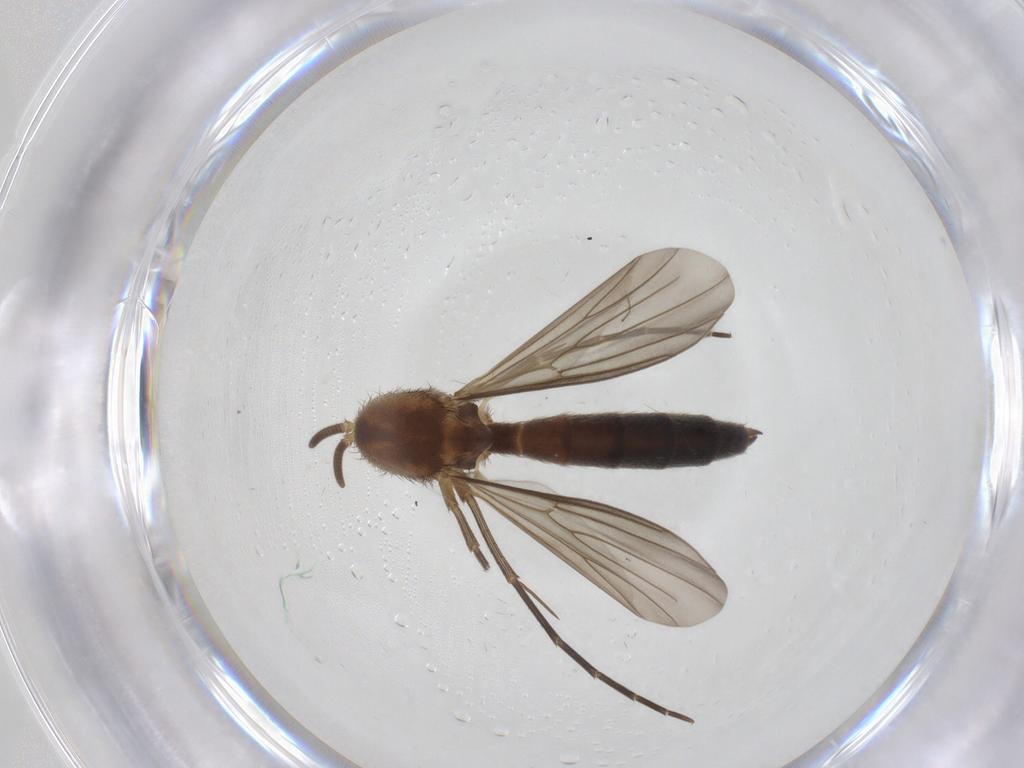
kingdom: Animalia
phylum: Arthropoda
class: Insecta
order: Diptera
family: Mycetophilidae
